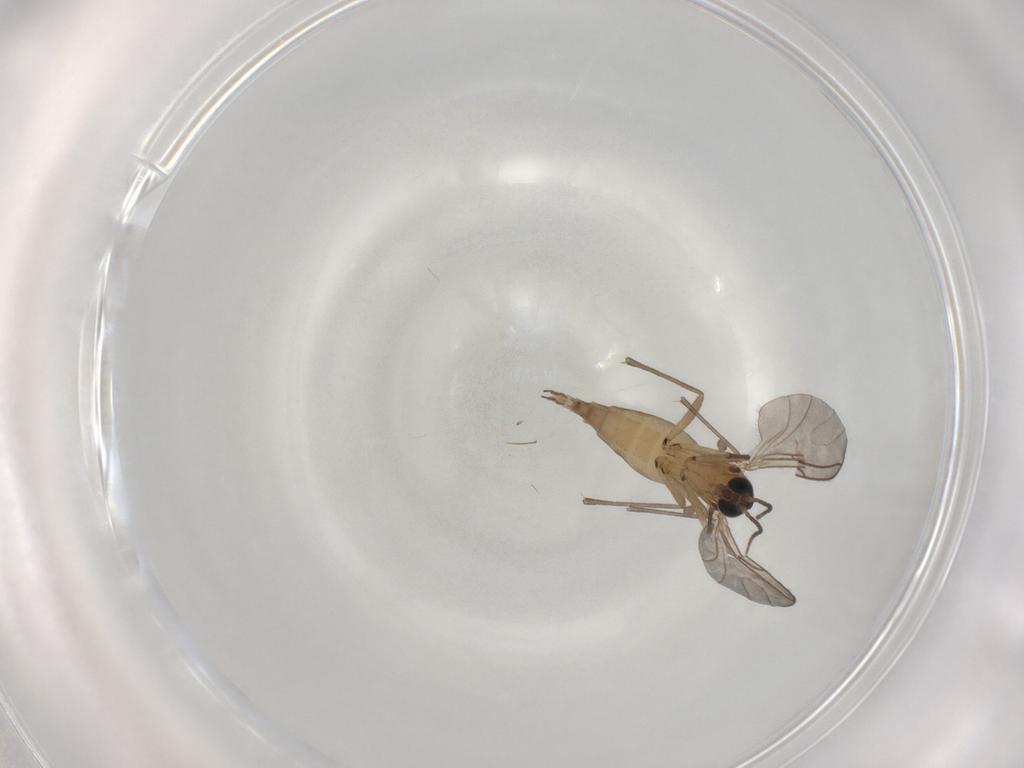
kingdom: Animalia
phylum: Arthropoda
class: Insecta
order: Diptera
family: Sciaridae
